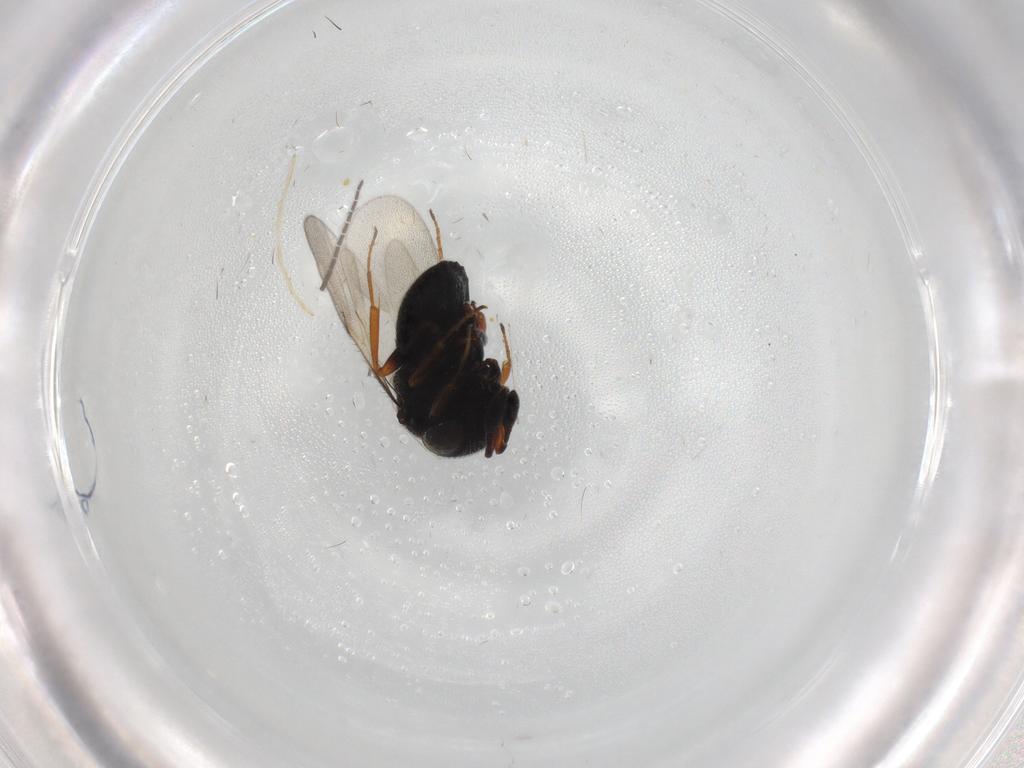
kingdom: Animalia
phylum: Arthropoda
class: Insecta
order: Hymenoptera
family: Scelionidae
